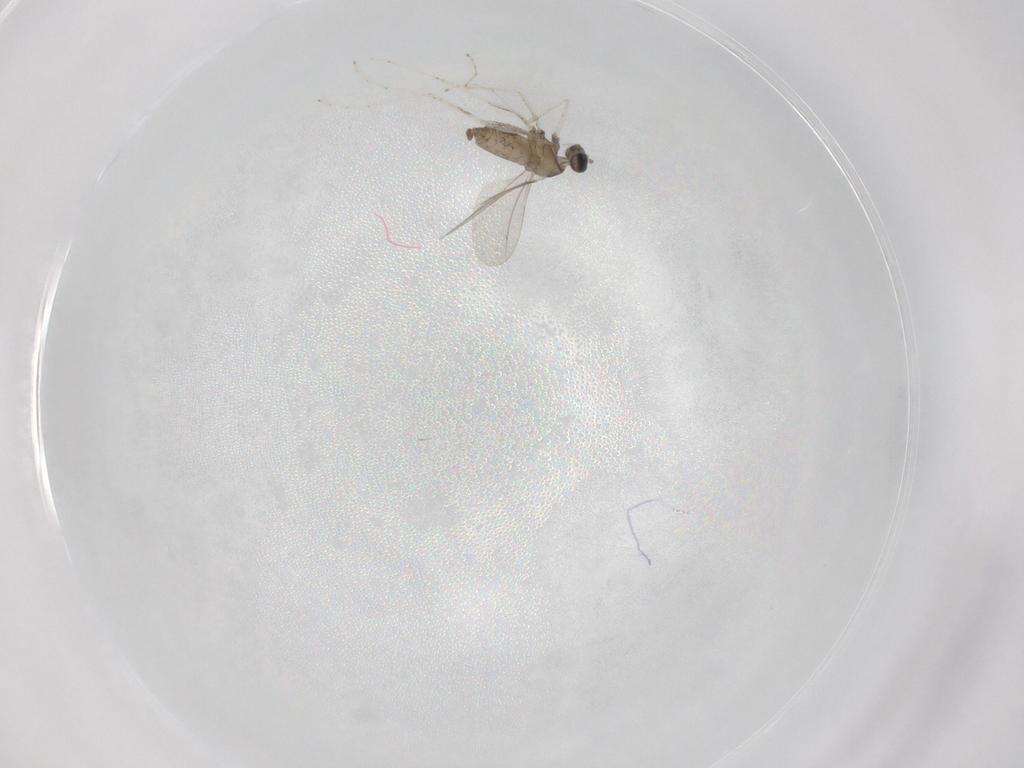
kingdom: Animalia
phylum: Arthropoda
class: Insecta
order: Diptera
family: Cecidomyiidae
